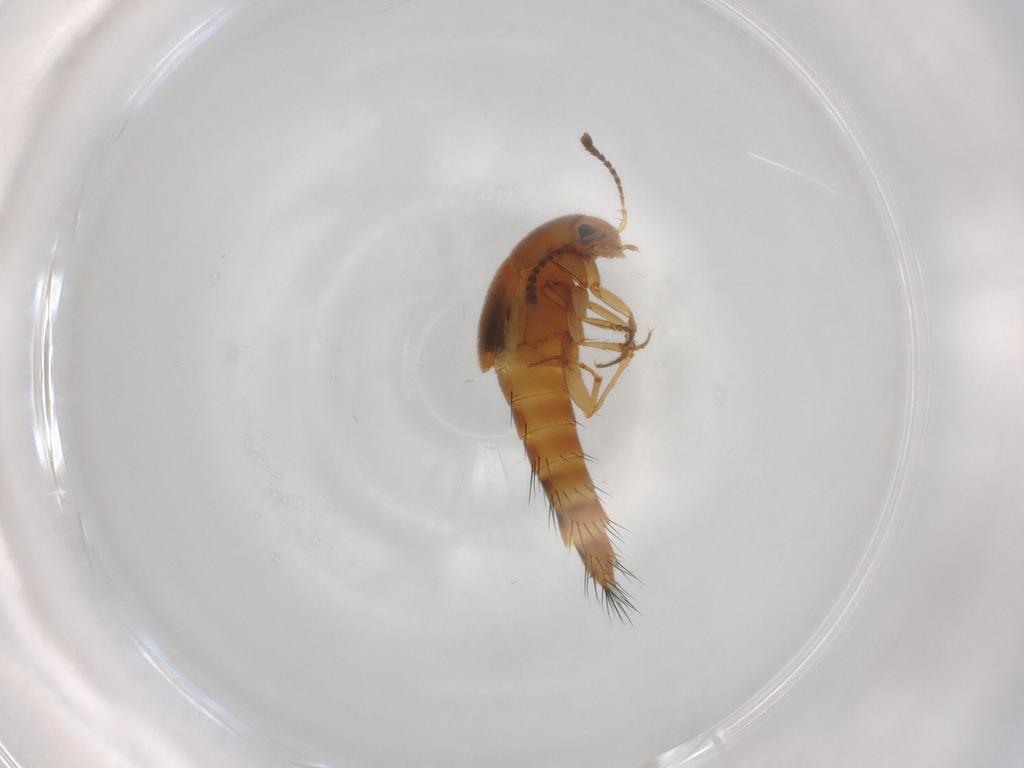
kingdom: Animalia
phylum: Arthropoda
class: Insecta
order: Coleoptera
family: Staphylinidae
